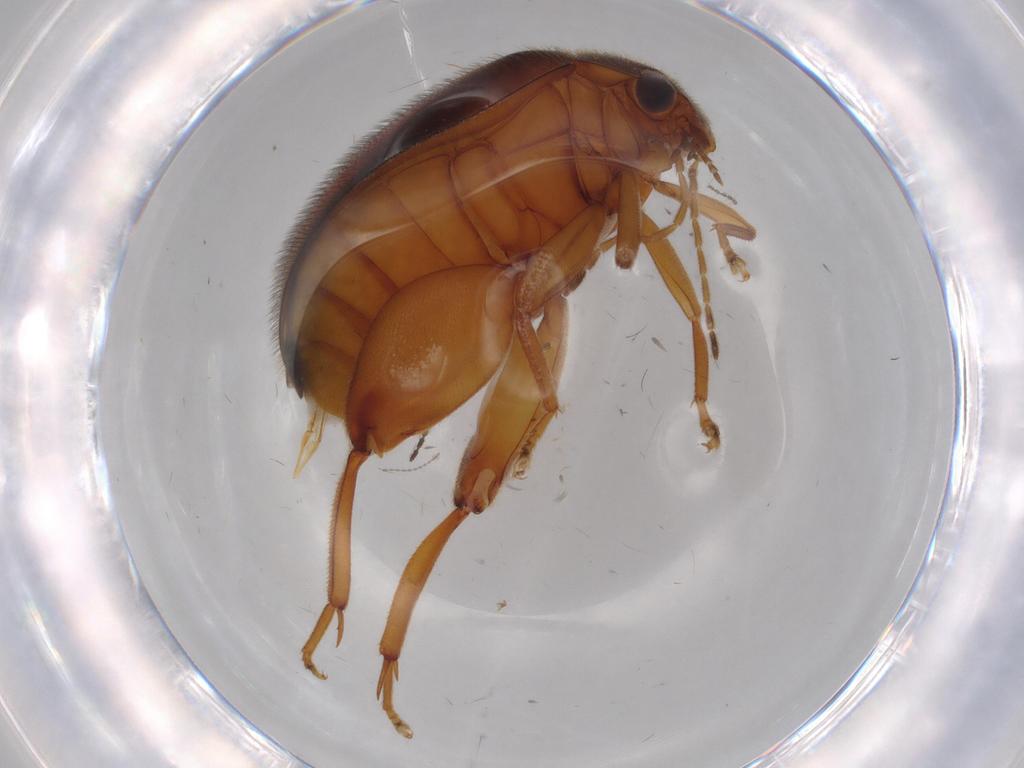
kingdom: Animalia
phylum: Arthropoda
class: Insecta
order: Coleoptera
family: Scirtidae
